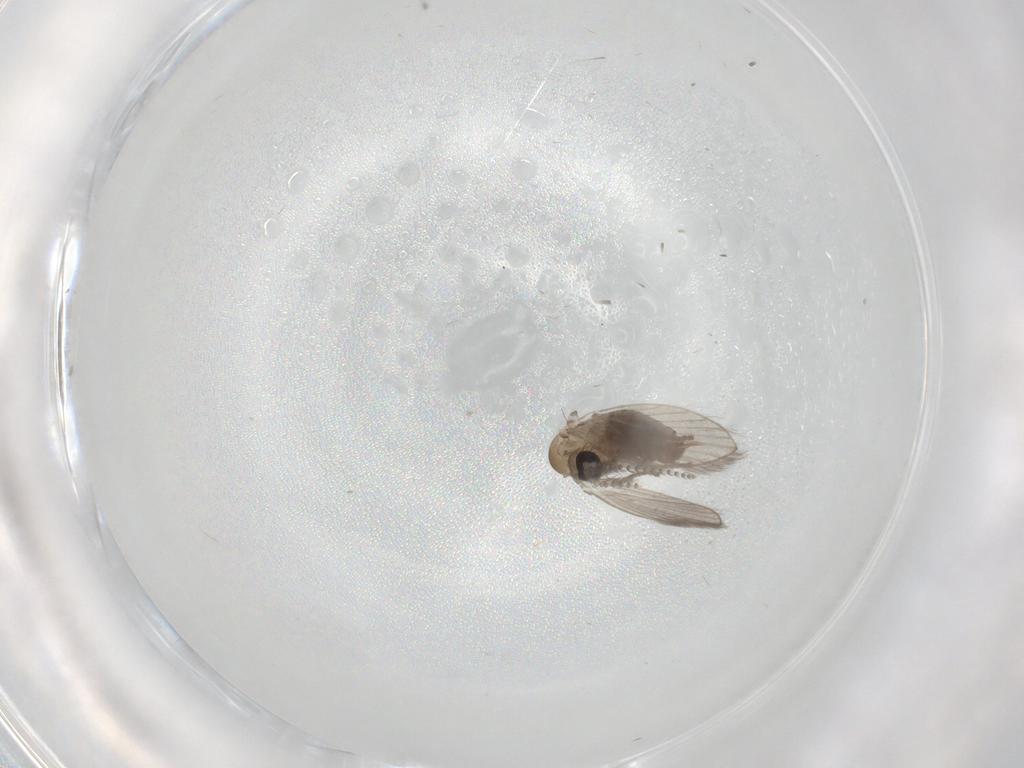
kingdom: Animalia
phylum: Arthropoda
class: Insecta
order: Diptera
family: Psychodidae
